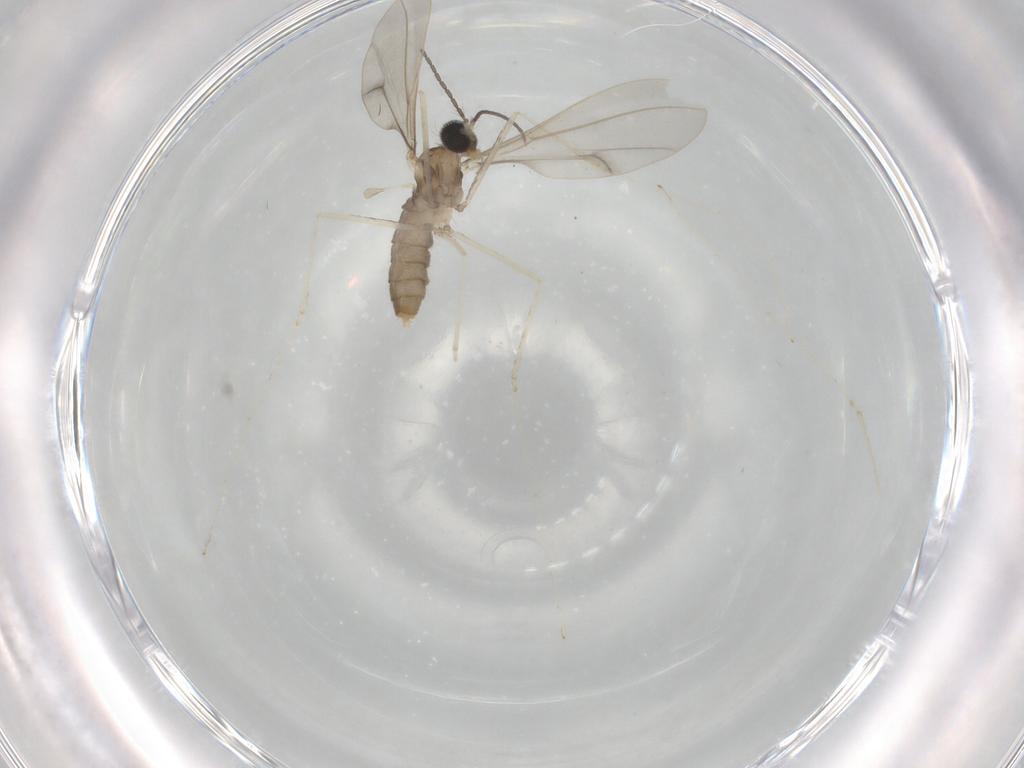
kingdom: Animalia
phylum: Arthropoda
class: Insecta
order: Diptera
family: Cecidomyiidae
